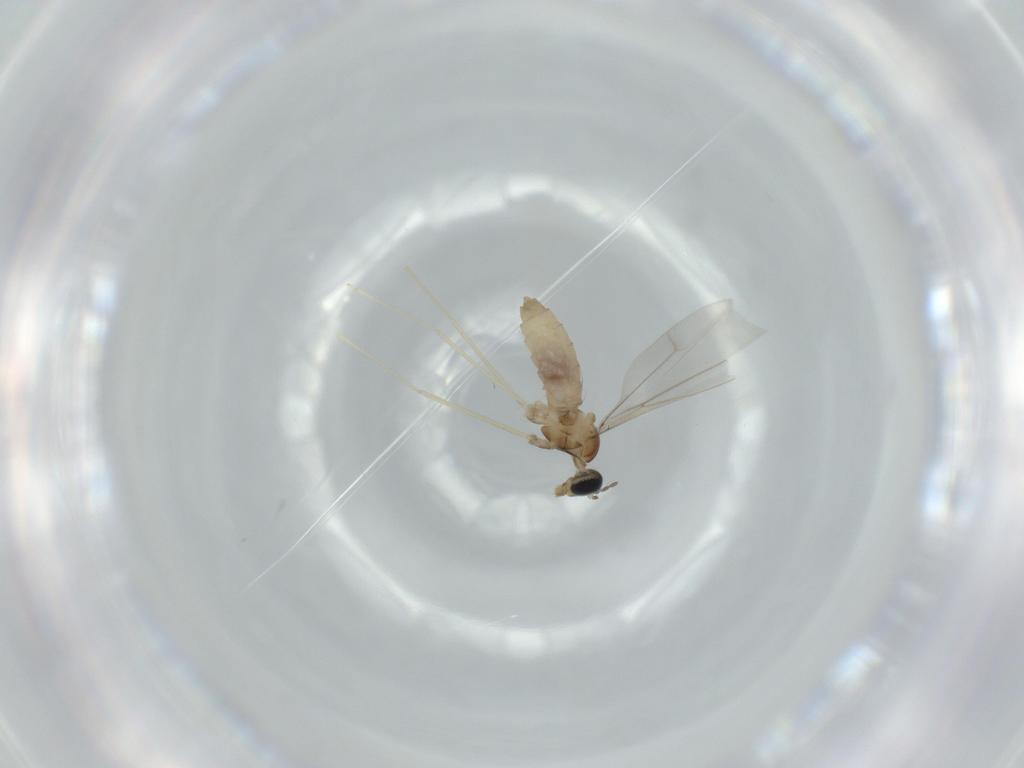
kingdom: Animalia
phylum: Arthropoda
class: Insecta
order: Diptera
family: Cecidomyiidae
